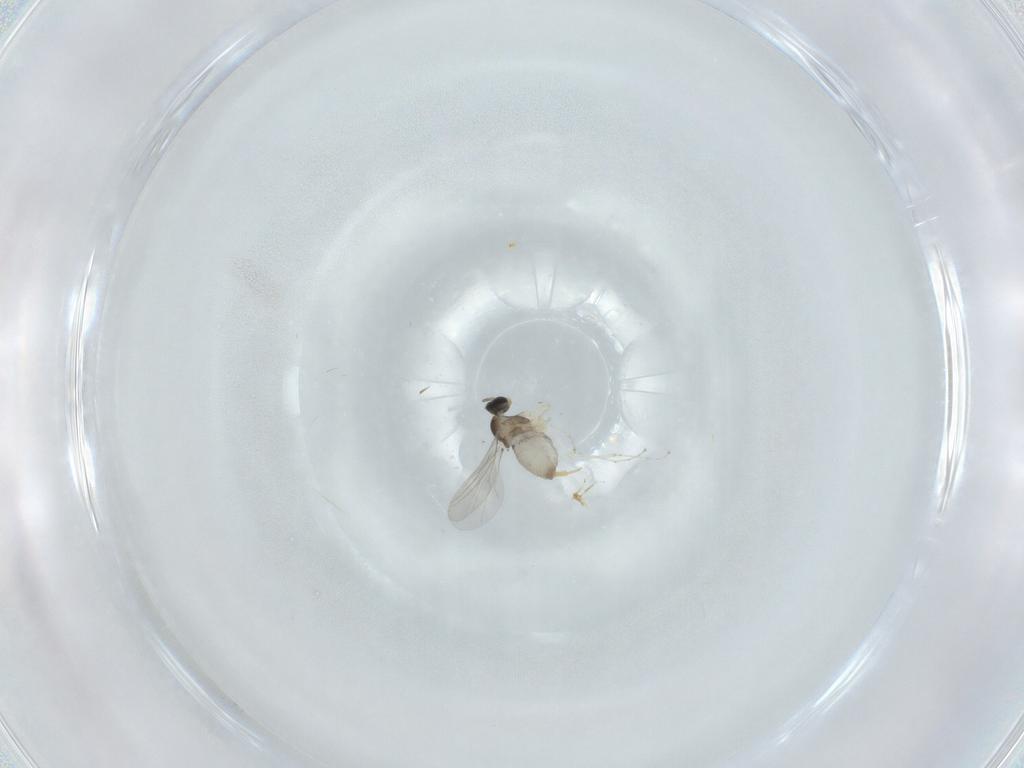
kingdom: Animalia
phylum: Arthropoda
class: Insecta
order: Diptera
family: Cecidomyiidae
